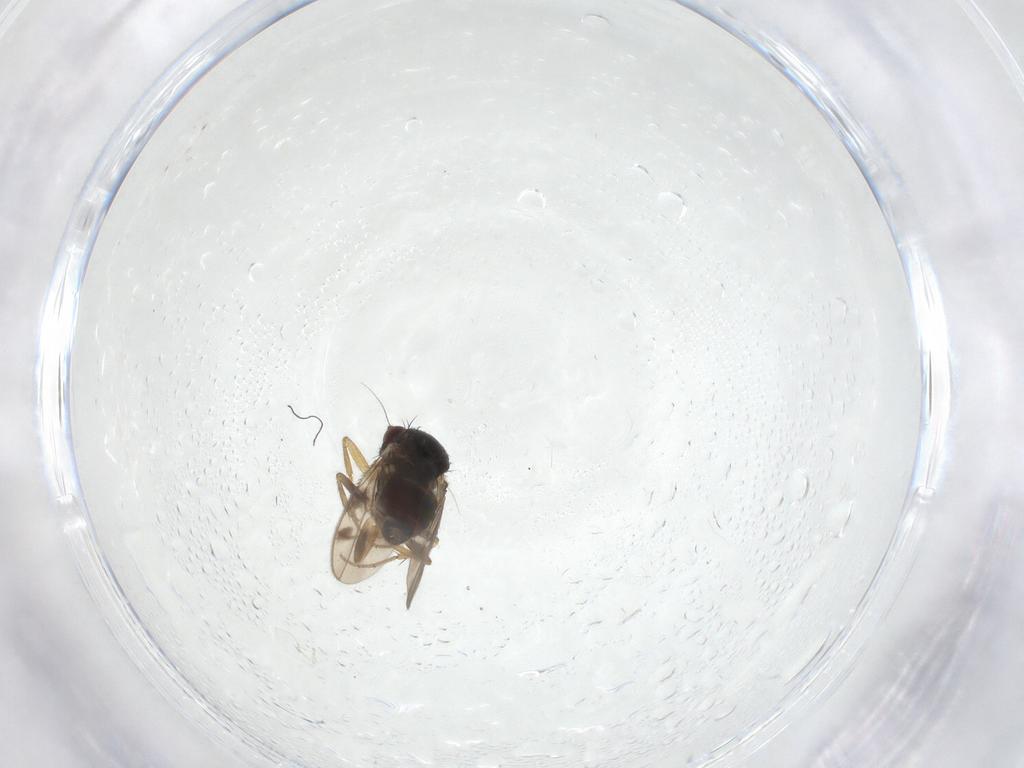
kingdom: Animalia
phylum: Arthropoda
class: Insecta
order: Diptera
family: Sphaeroceridae
